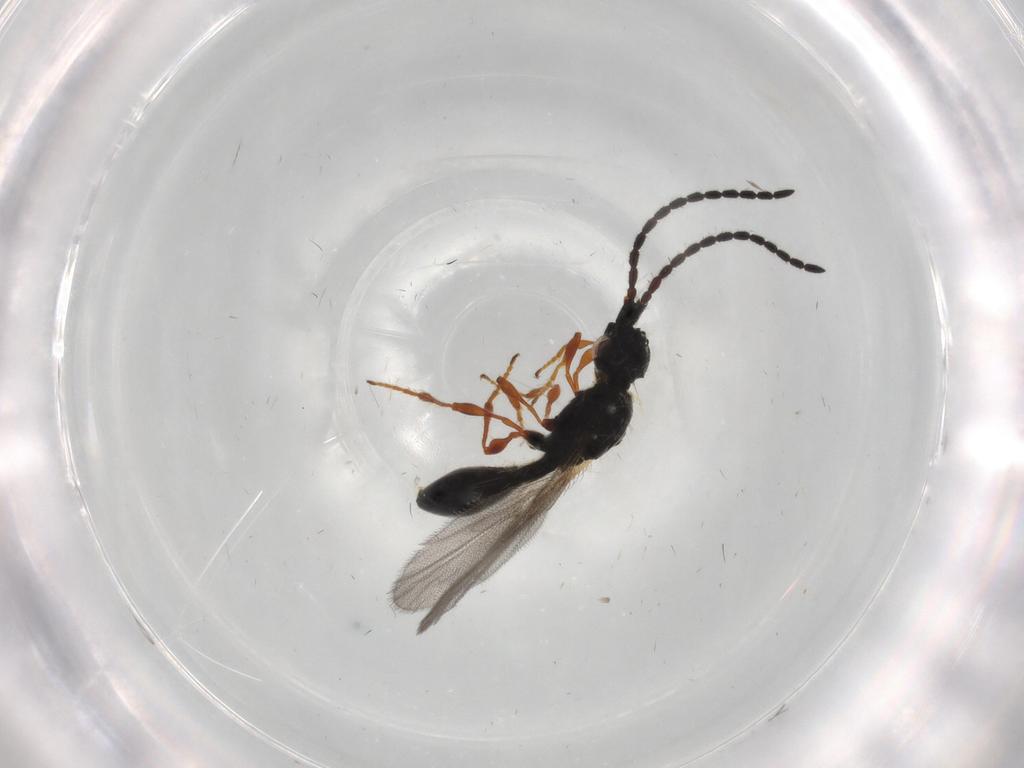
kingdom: Animalia
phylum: Arthropoda
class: Insecta
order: Hymenoptera
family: Diapriidae
